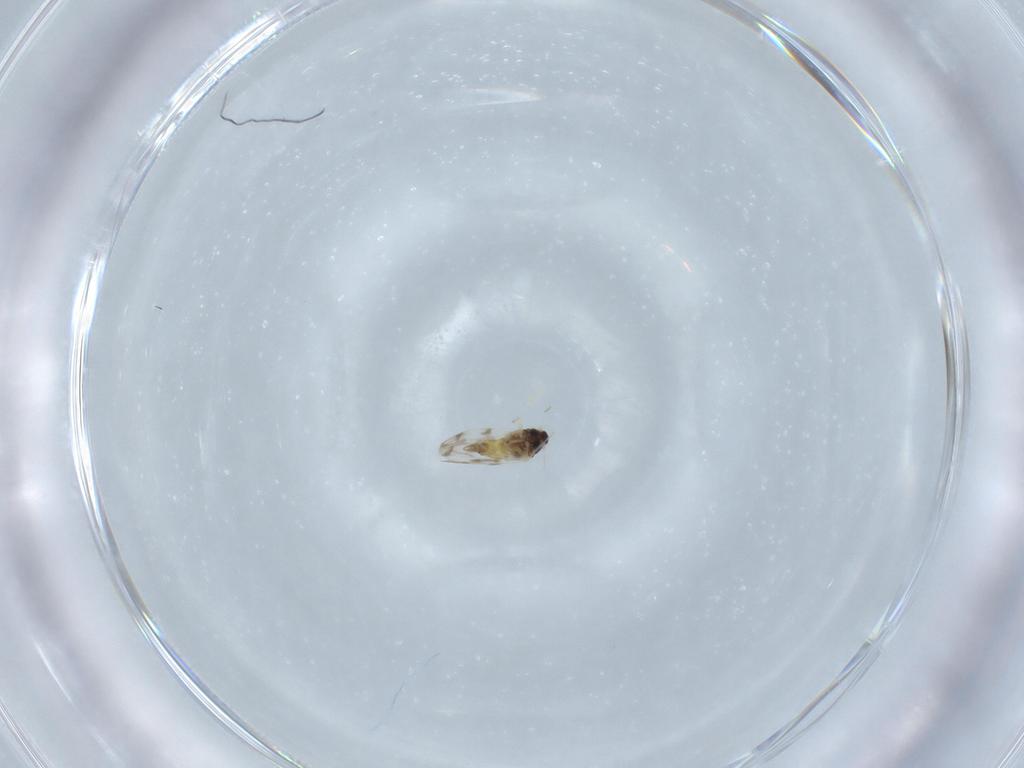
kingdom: Animalia
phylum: Arthropoda
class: Insecta
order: Hemiptera
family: Aleyrodidae
